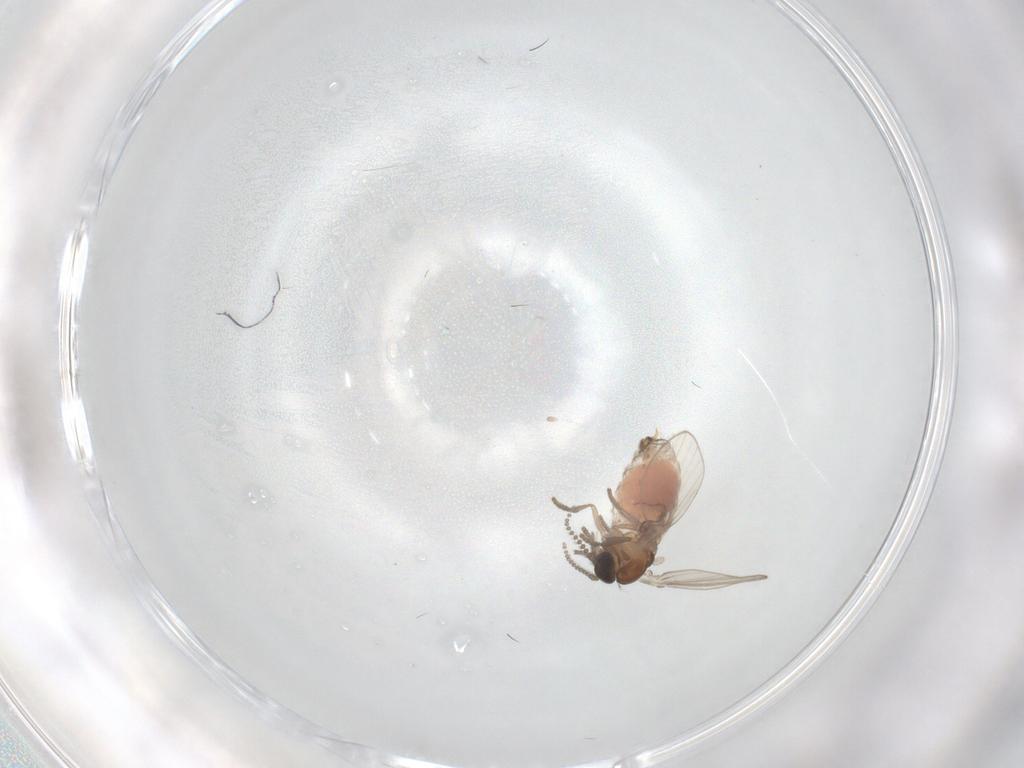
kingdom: Animalia
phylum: Arthropoda
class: Insecta
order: Diptera
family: Psychodidae
